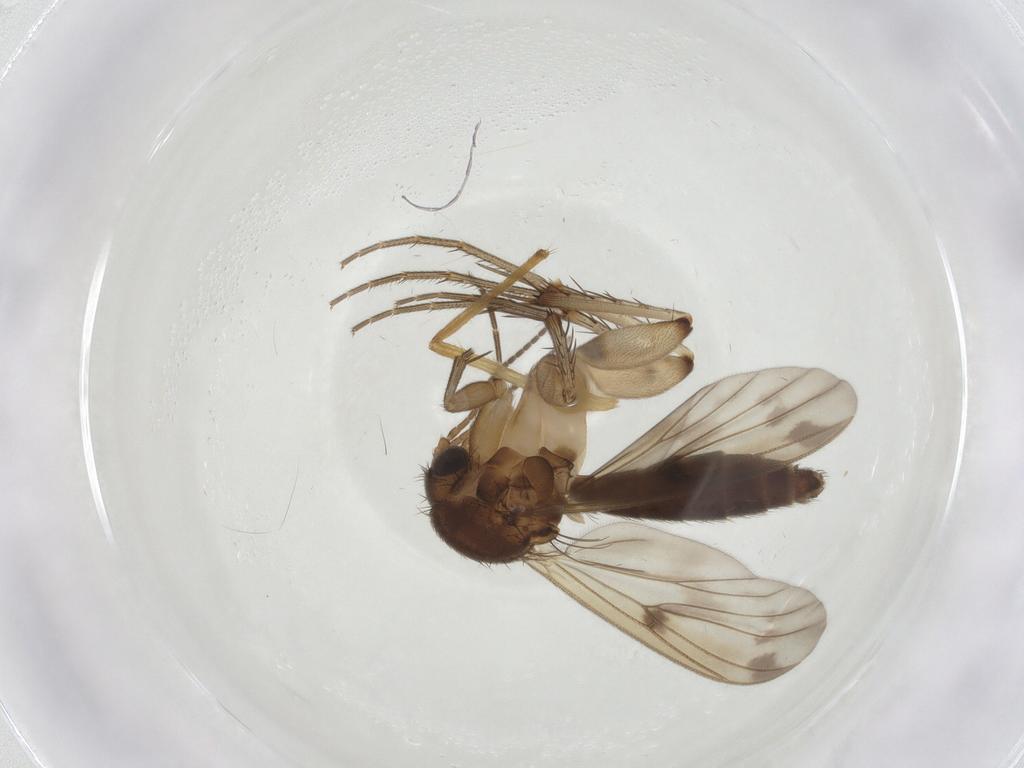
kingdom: Animalia
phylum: Arthropoda
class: Insecta
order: Diptera
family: Chironomidae
